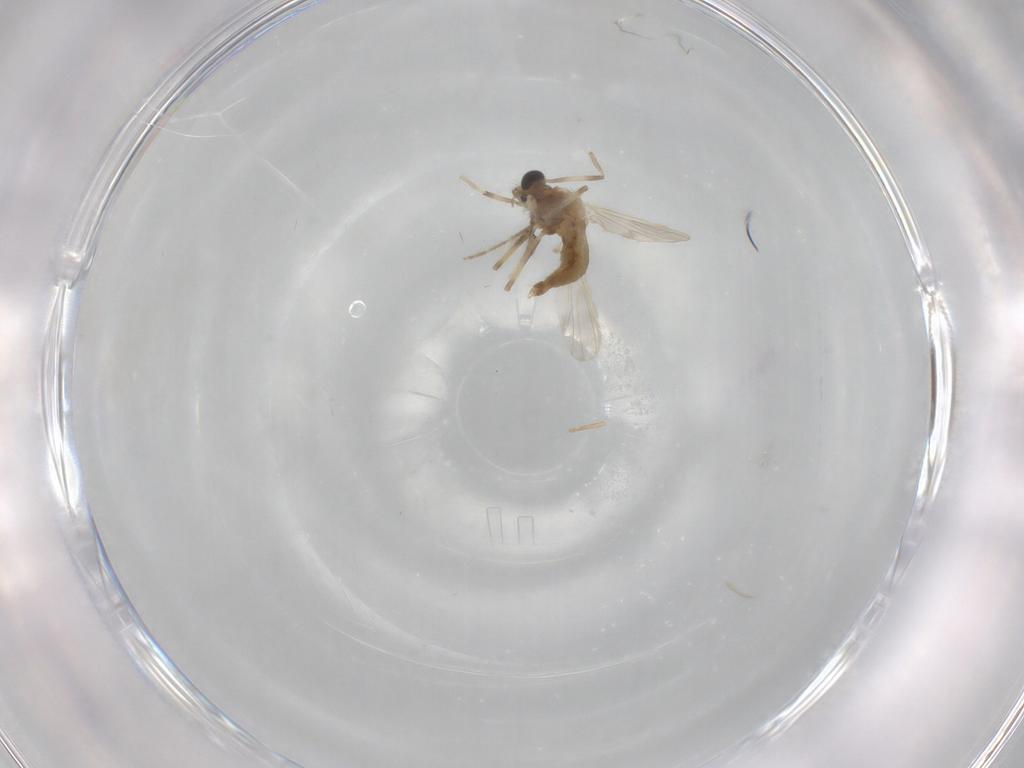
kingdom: Animalia
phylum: Arthropoda
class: Insecta
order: Diptera
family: Chironomidae
